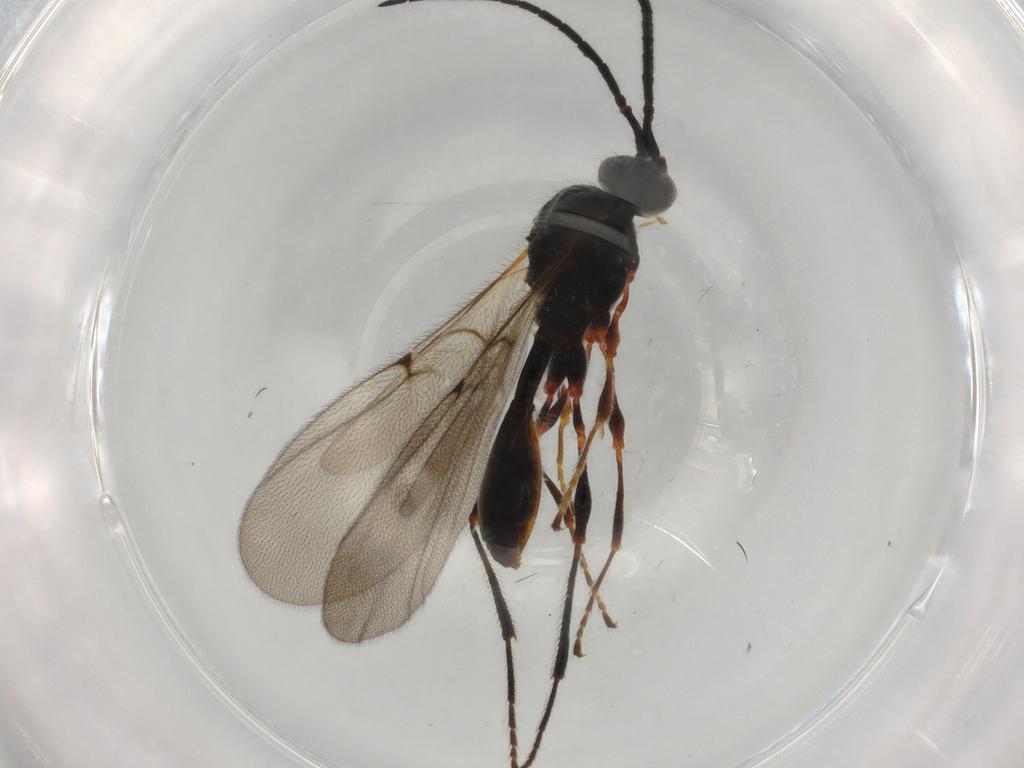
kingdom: Animalia
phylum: Arthropoda
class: Insecta
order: Hymenoptera
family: Diapriidae
